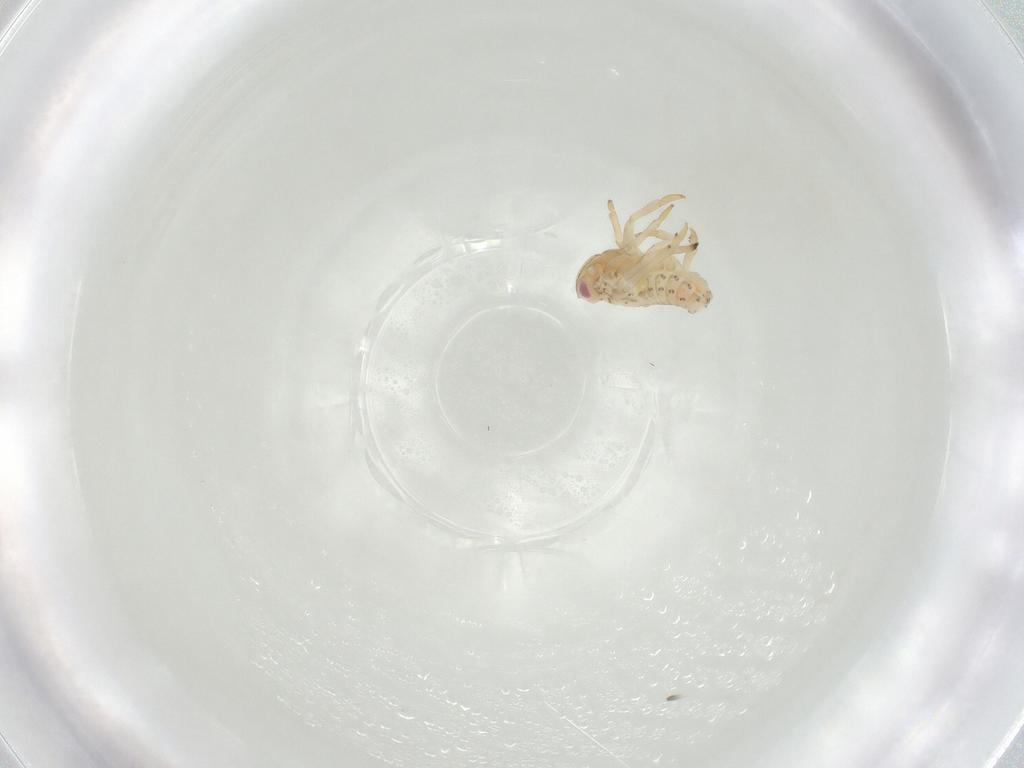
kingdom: Animalia
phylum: Arthropoda
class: Insecta
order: Hemiptera
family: Tropiduchidae
